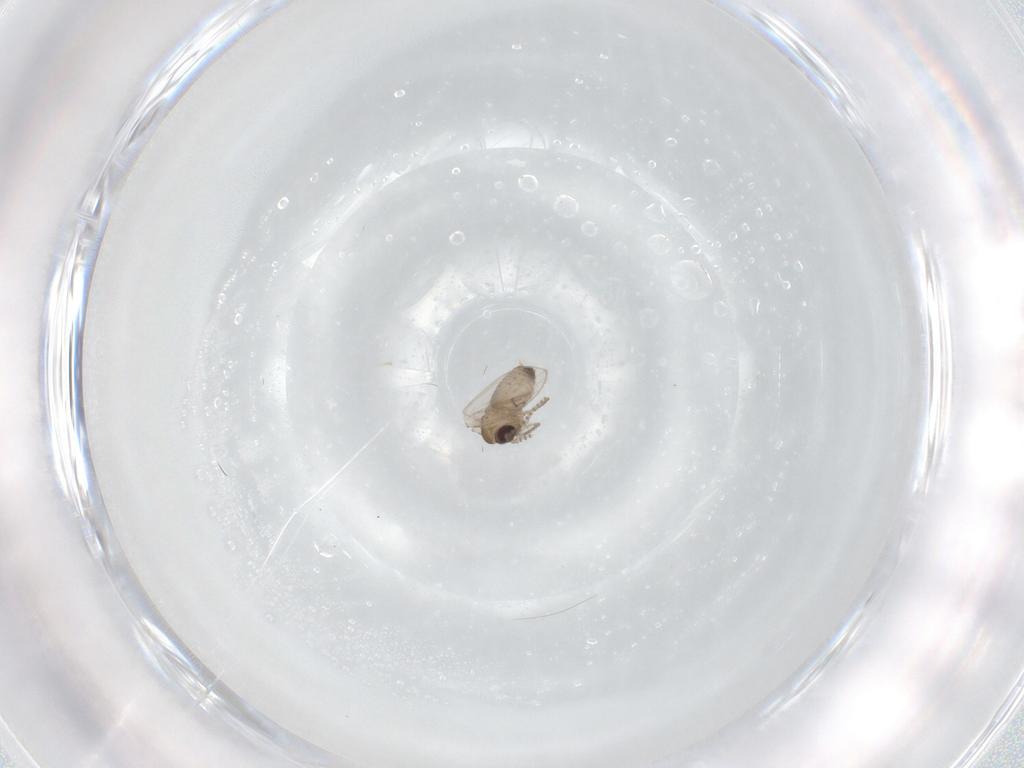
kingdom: Animalia
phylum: Arthropoda
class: Insecta
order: Diptera
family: Psychodidae
